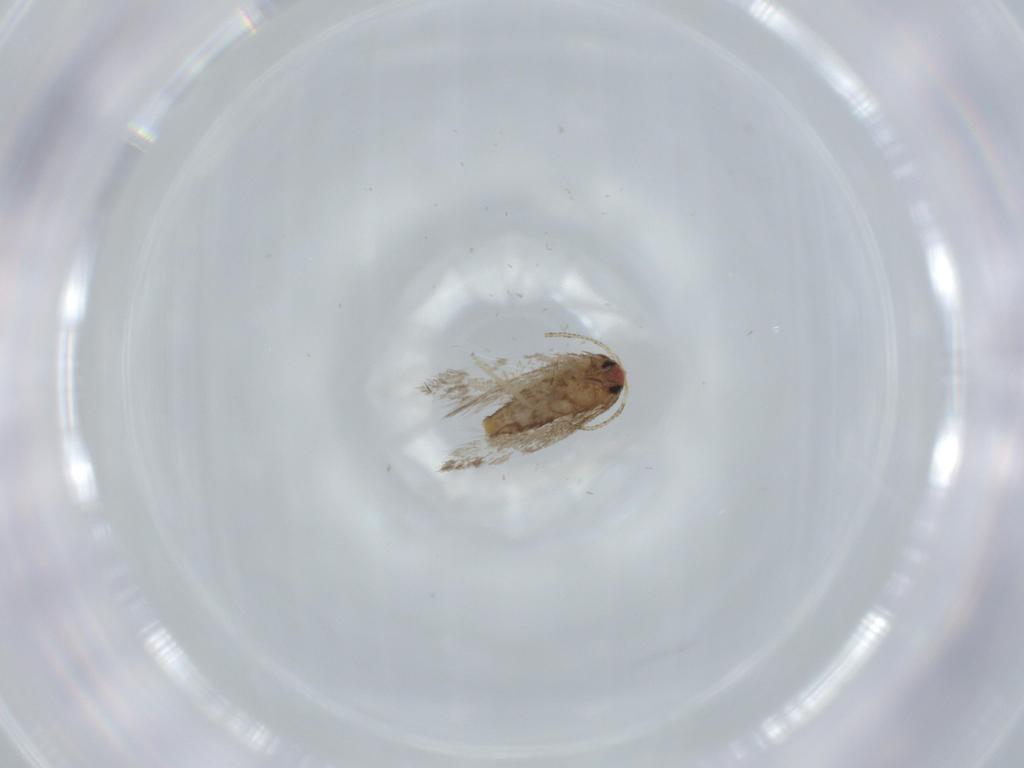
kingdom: Animalia
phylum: Arthropoda
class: Insecta
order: Lepidoptera
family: Nepticulidae
